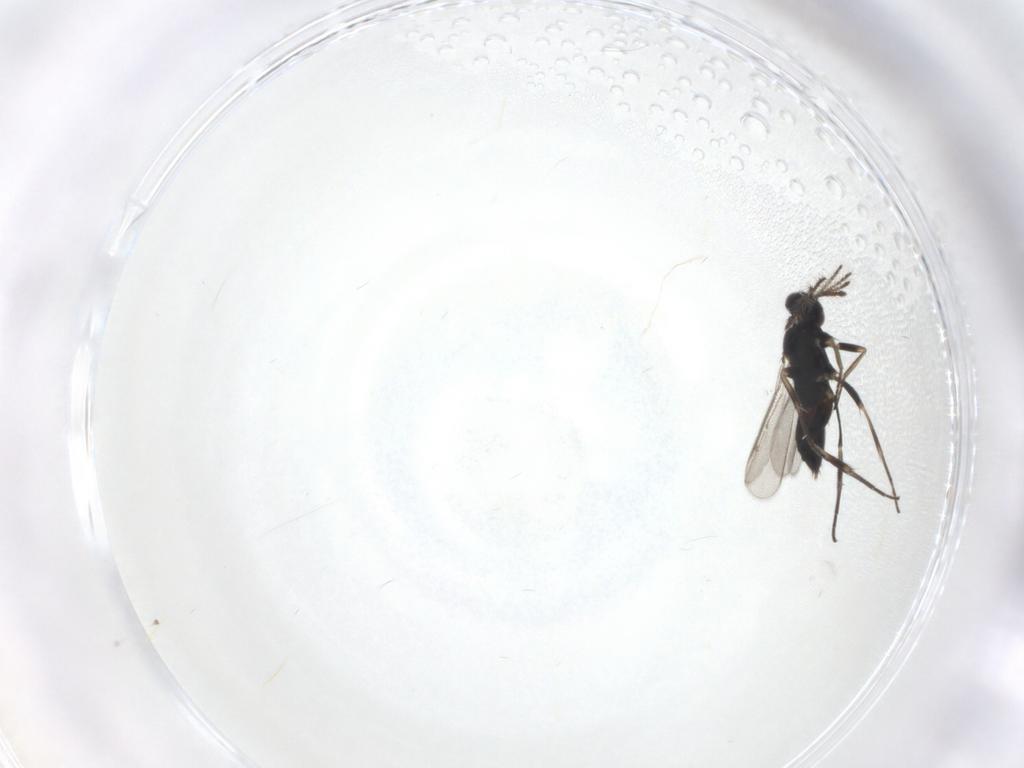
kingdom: Animalia
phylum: Arthropoda
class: Insecta
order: Hymenoptera
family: Eulophidae
